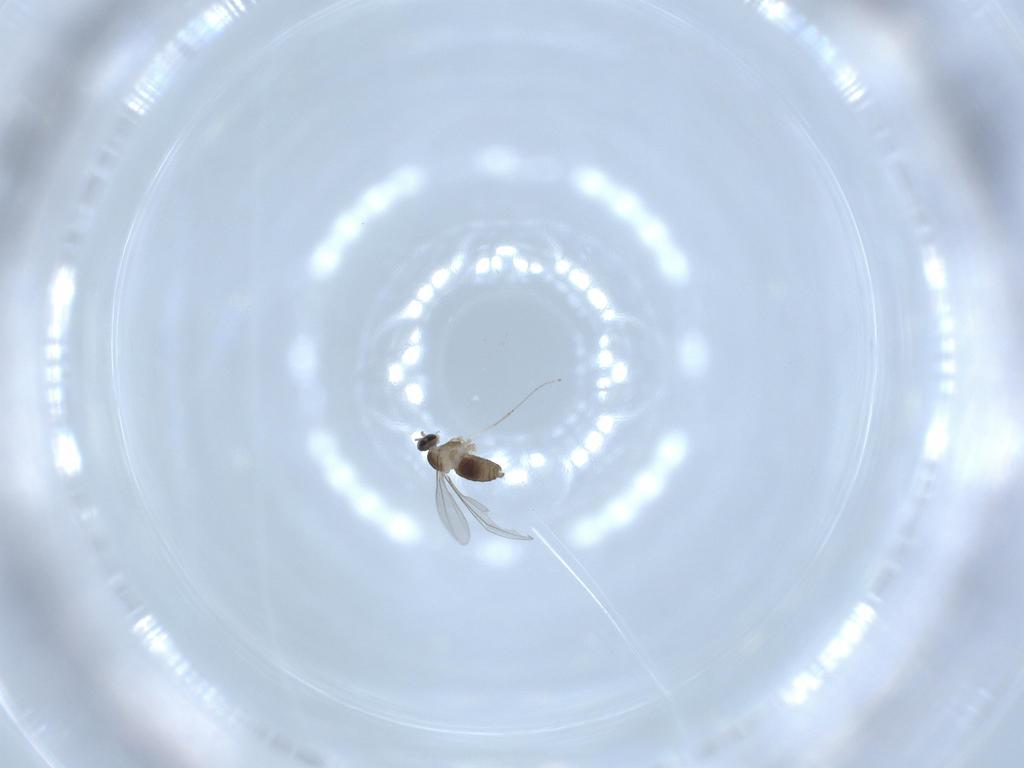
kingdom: Animalia
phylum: Arthropoda
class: Insecta
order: Diptera
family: Cecidomyiidae
